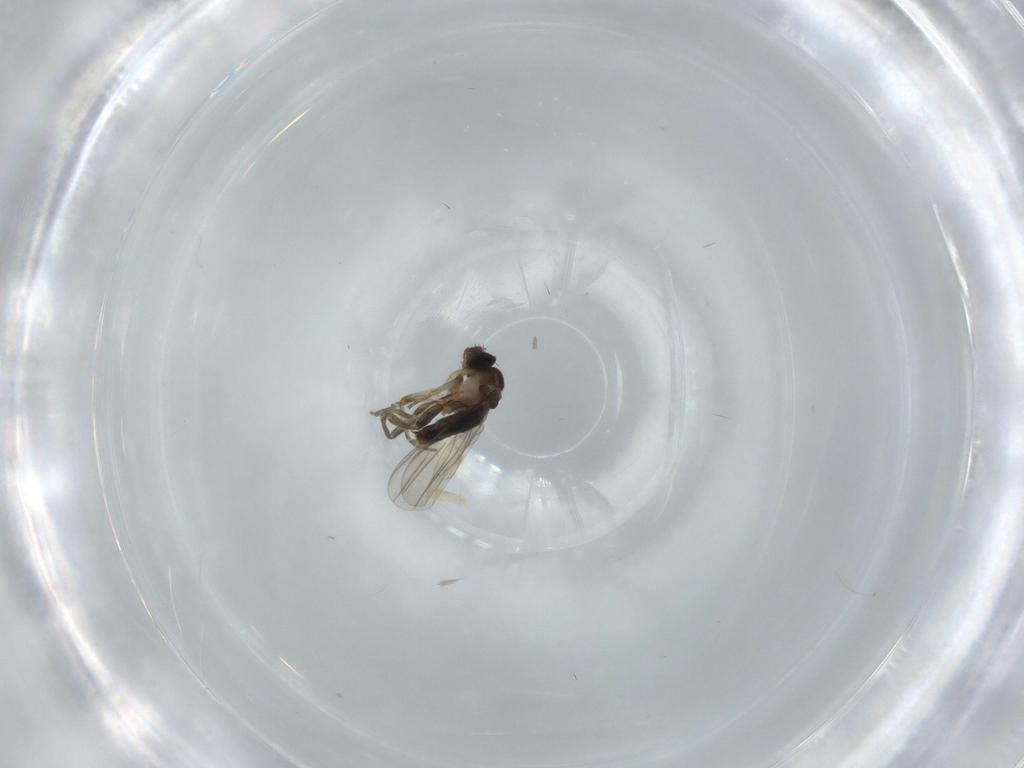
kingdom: Animalia
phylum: Arthropoda
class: Insecta
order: Diptera
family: Phoridae
